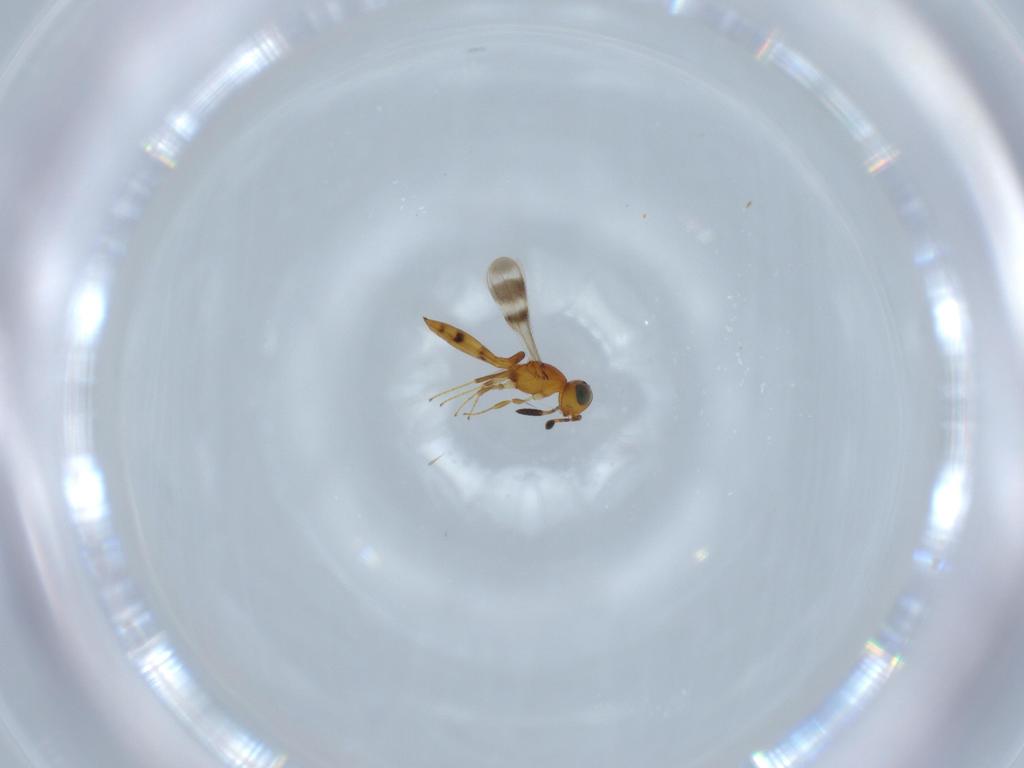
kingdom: Animalia
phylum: Arthropoda
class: Insecta
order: Hymenoptera
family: Scelionidae
